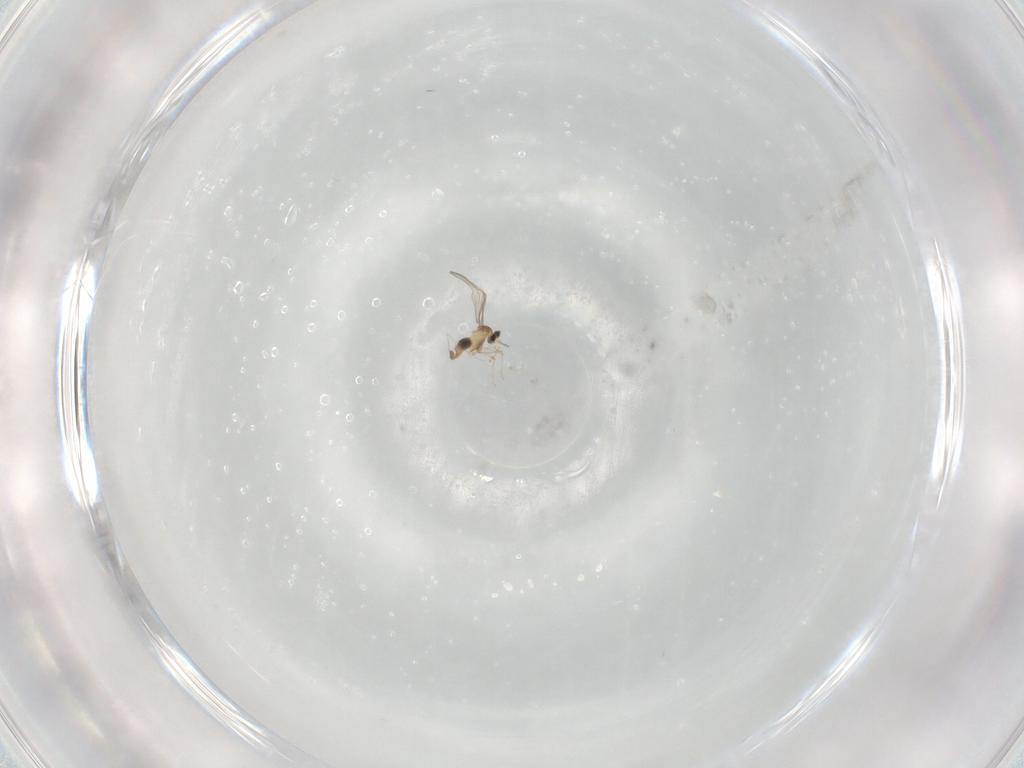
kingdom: Animalia
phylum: Arthropoda
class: Insecta
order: Diptera
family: Cecidomyiidae
